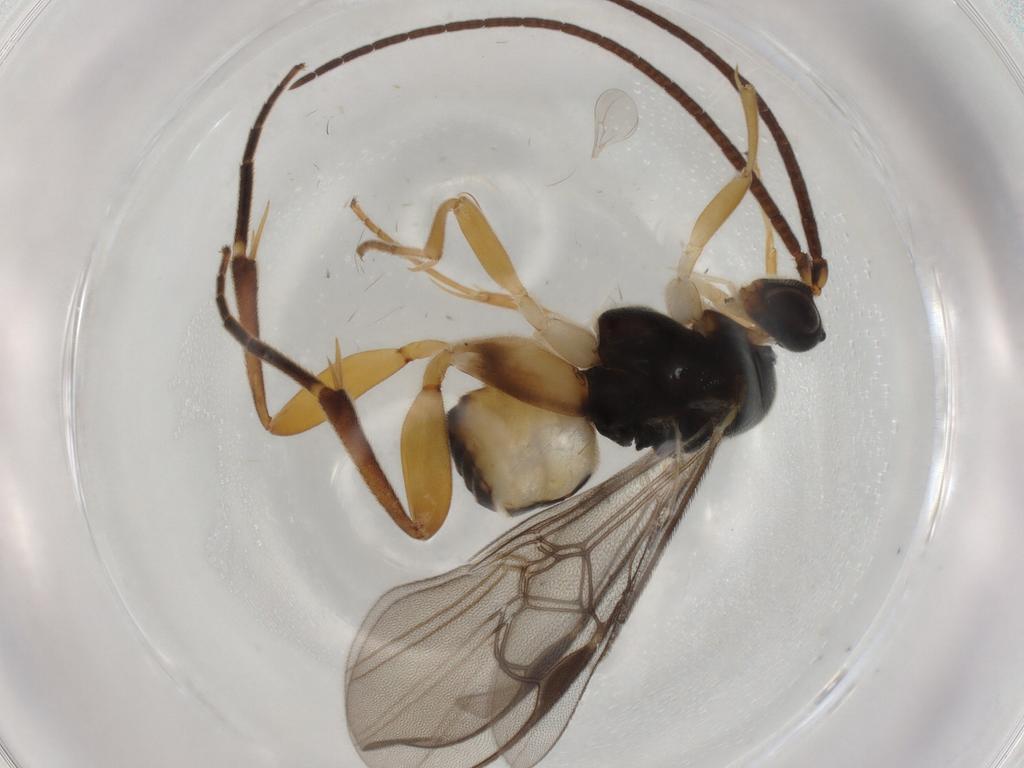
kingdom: Animalia
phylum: Arthropoda
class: Insecta
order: Hymenoptera
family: Braconidae
